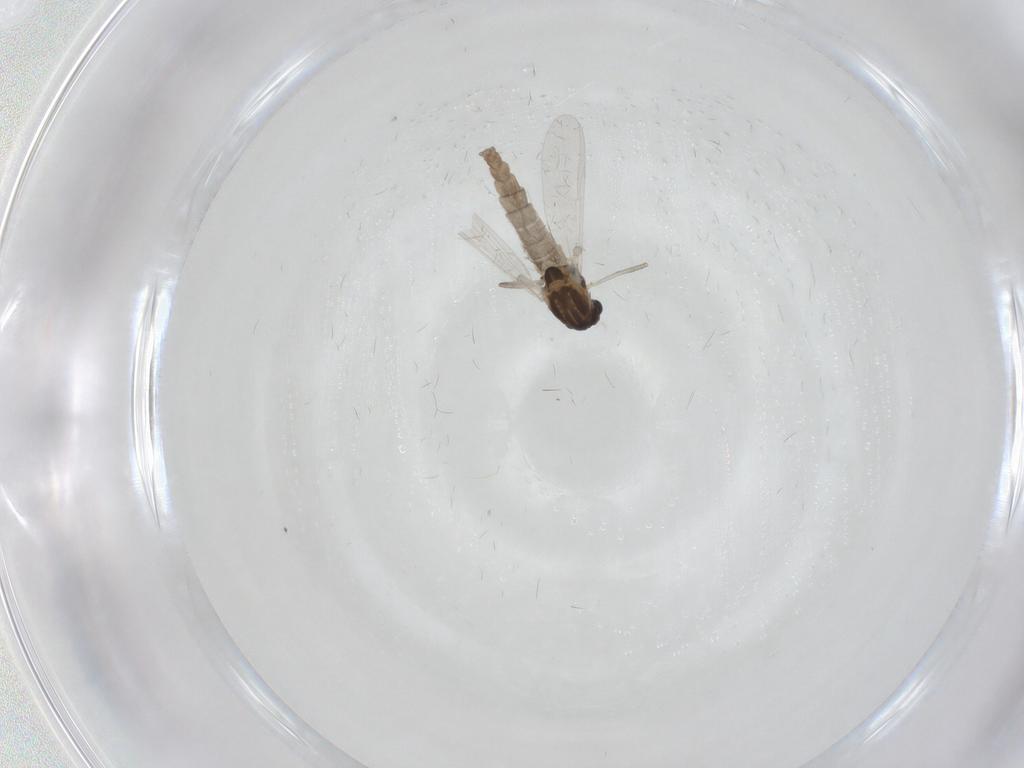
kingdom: Animalia
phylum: Arthropoda
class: Insecta
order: Diptera
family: Phoridae
